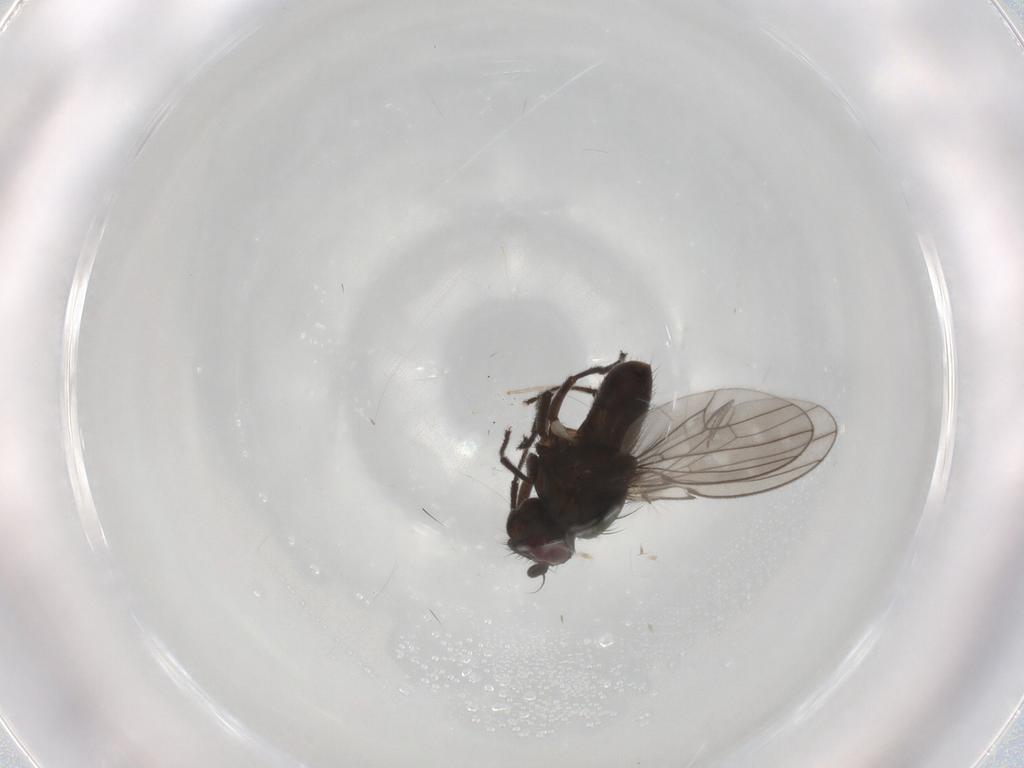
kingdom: Animalia
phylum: Arthropoda
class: Insecta
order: Diptera
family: Ephydridae
